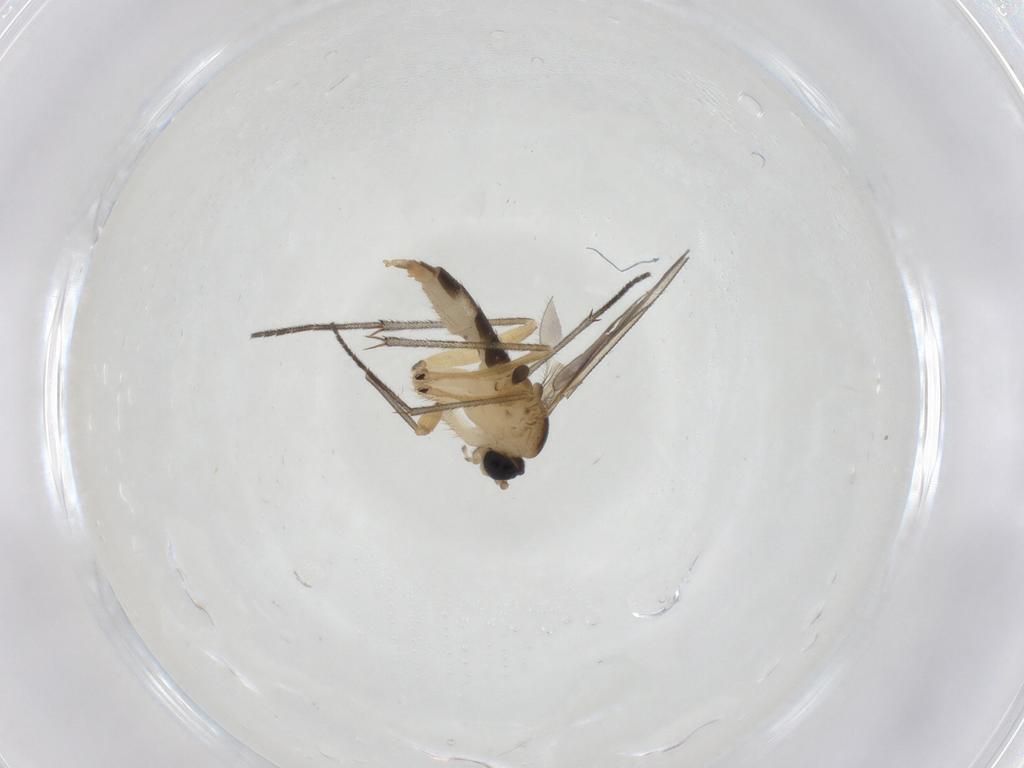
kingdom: Animalia
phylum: Arthropoda
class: Insecta
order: Diptera
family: Sciaridae
